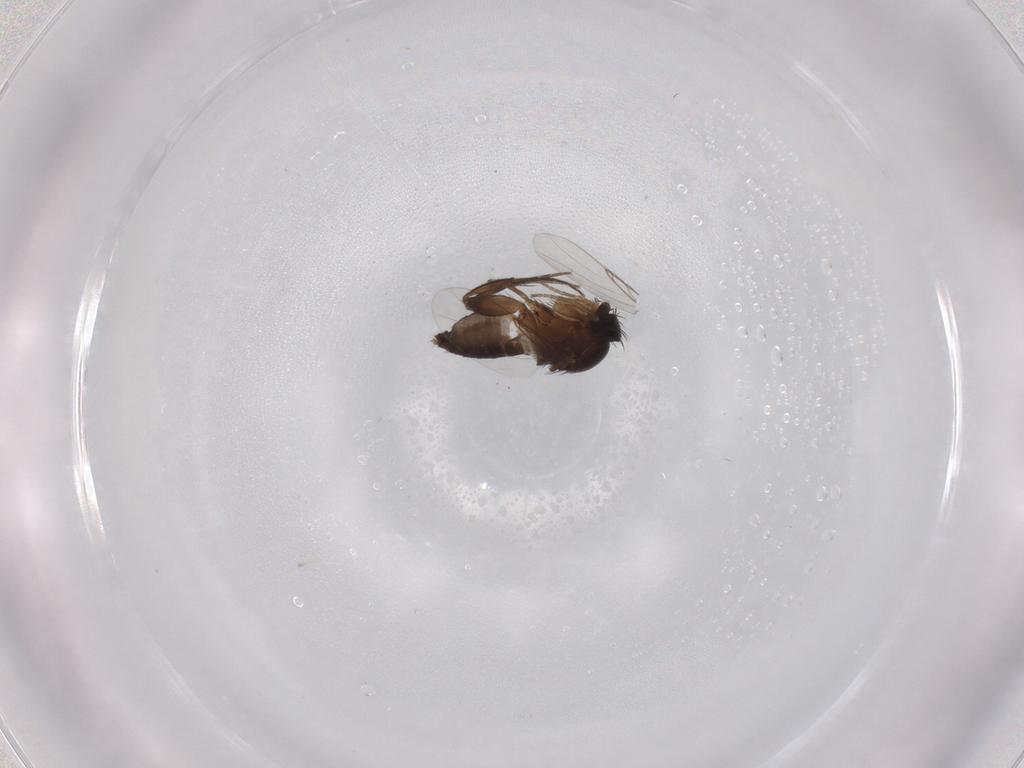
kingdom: Animalia
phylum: Arthropoda
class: Insecta
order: Diptera
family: Phoridae
